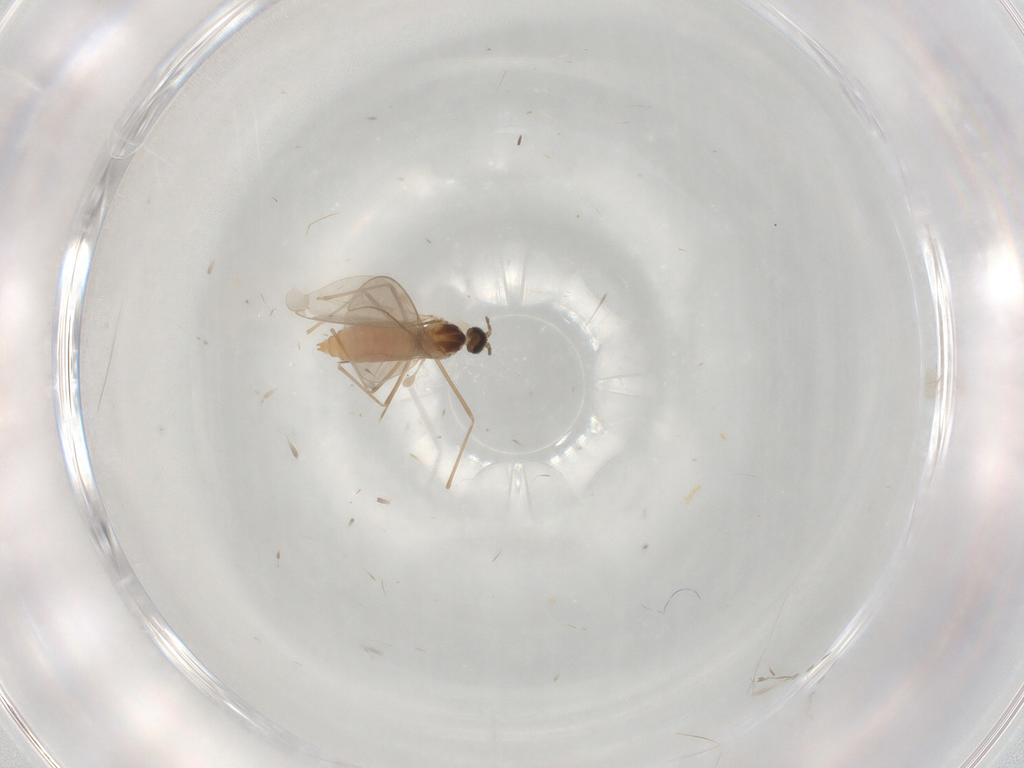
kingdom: Animalia
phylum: Arthropoda
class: Insecta
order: Diptera
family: Cecidomyiidae
